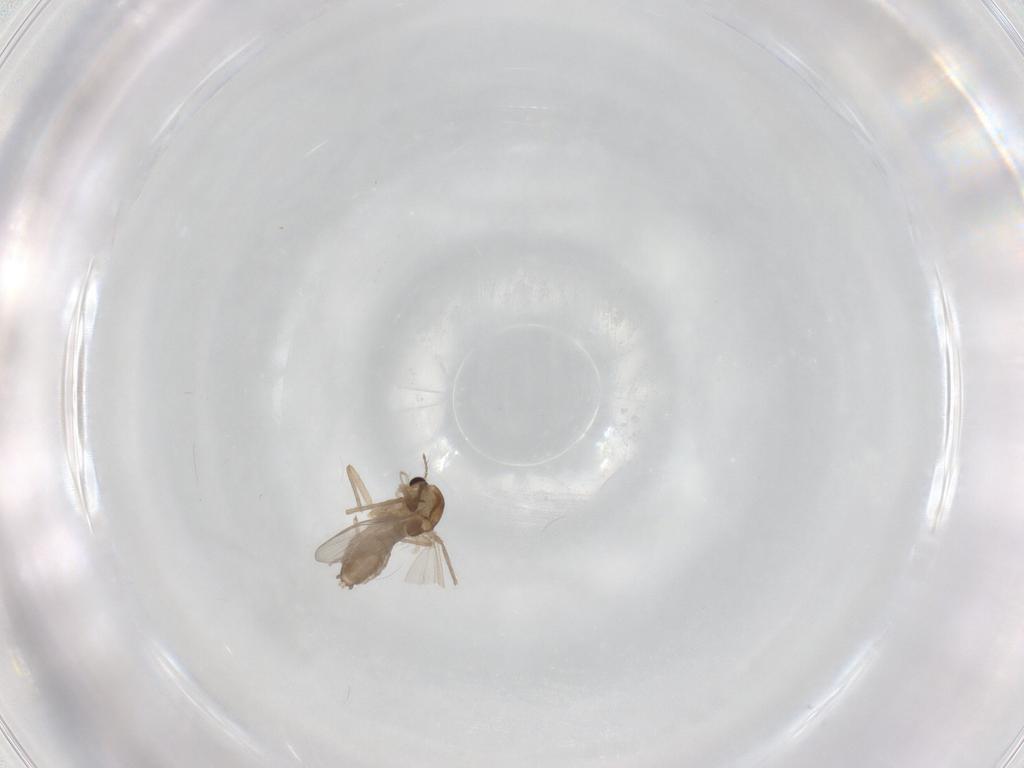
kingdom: Animalia
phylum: Arthropoda
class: Insecta
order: Diptera
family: Chironomidae
